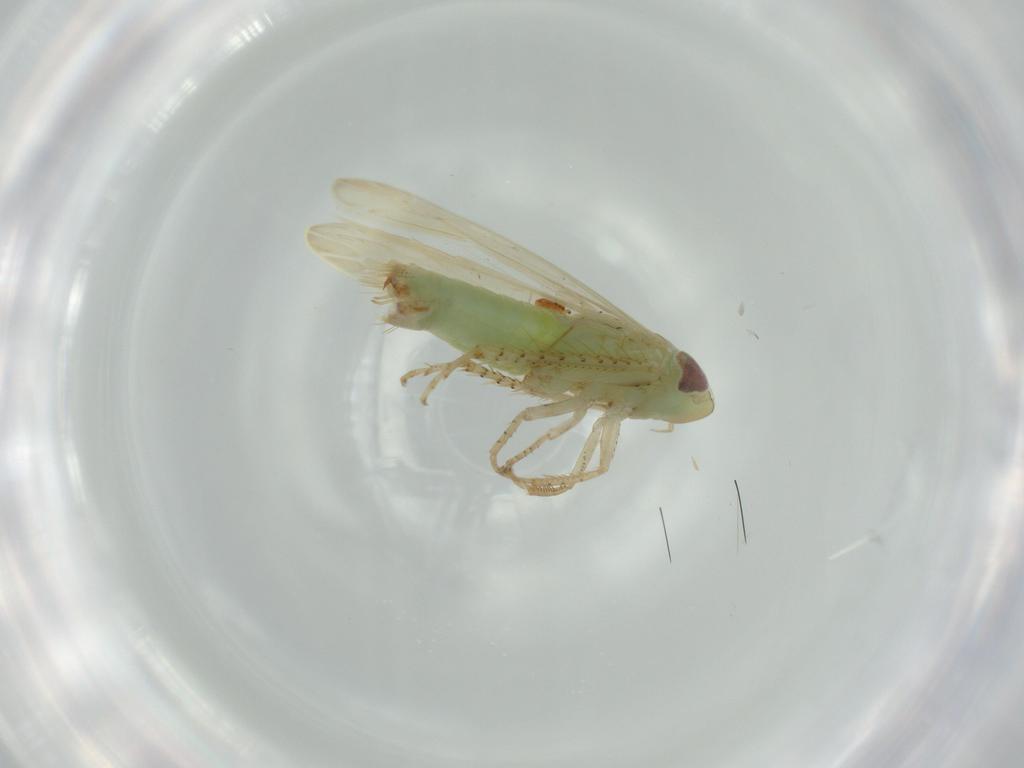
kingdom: Animalia
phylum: Arthropoda
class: Insecta
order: Hemiptera
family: Cicadellidae
